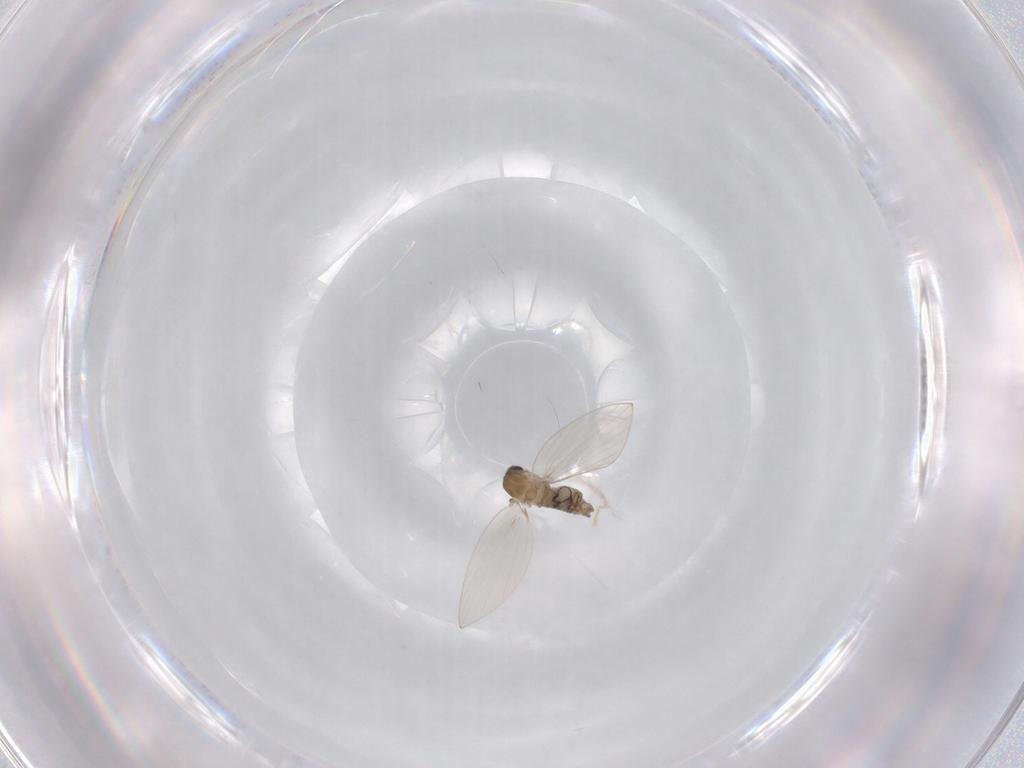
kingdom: Animalia
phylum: Arthropoda
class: Insecta
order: Diptera
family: Psychodidae
